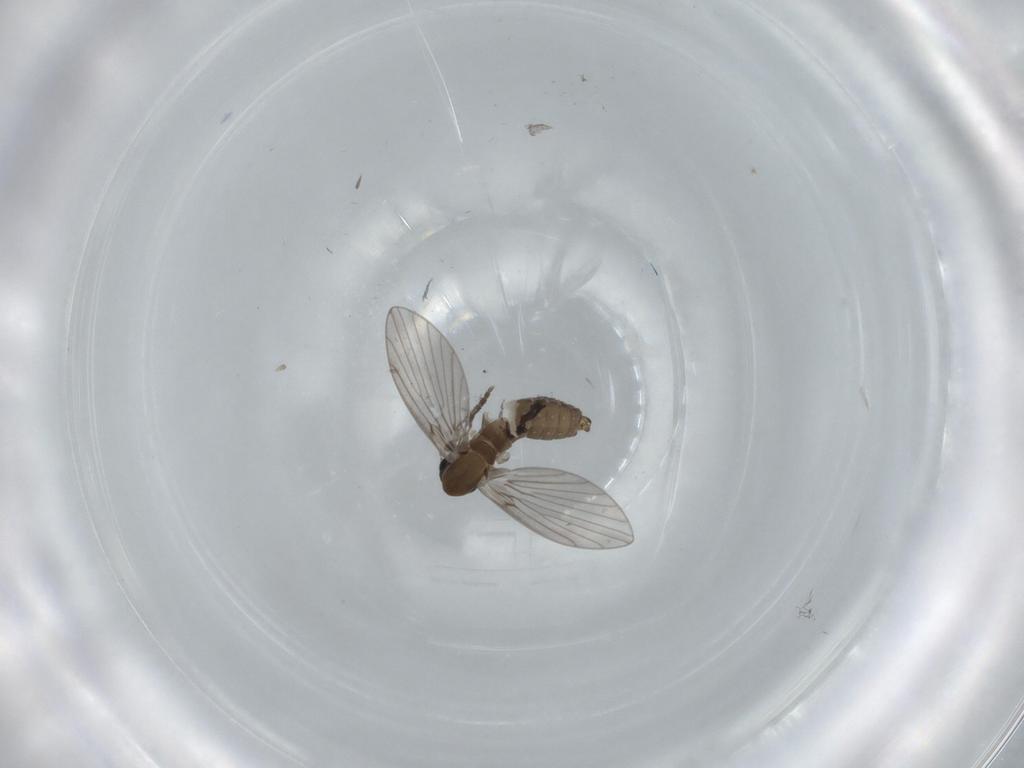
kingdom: Animalia
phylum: Arthropoda
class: Insecta
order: Diptera
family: Psychodidae
